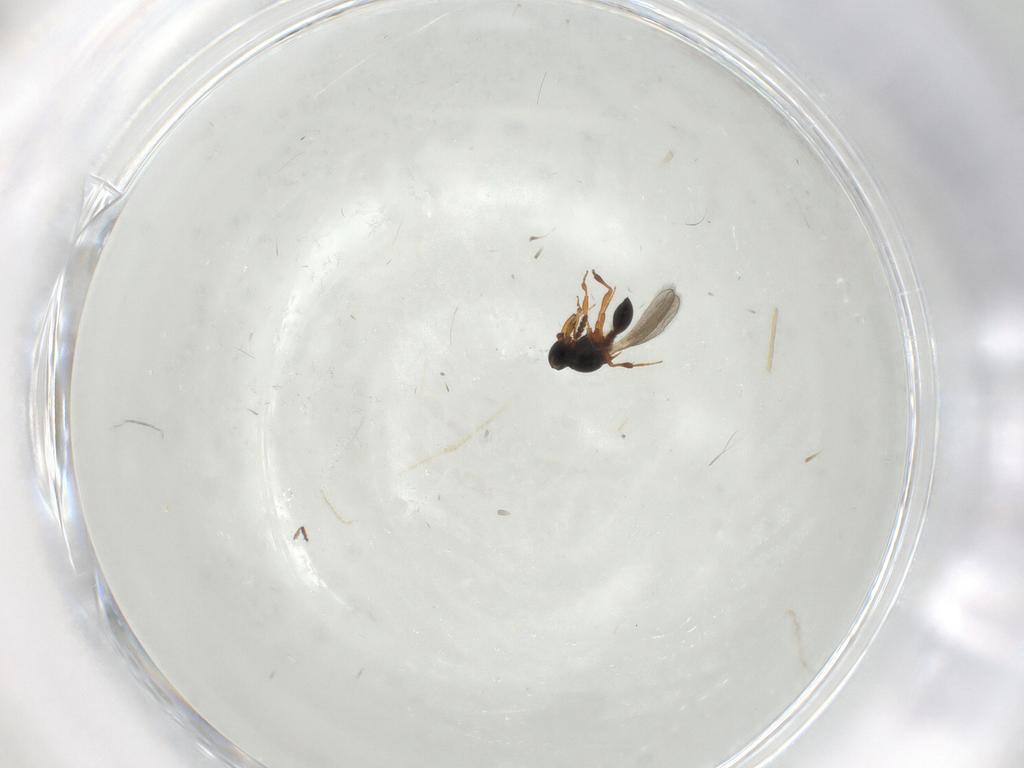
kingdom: Animalia
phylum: Arthropoda
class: Insecta
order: Hymenoptera
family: Platygastridae
